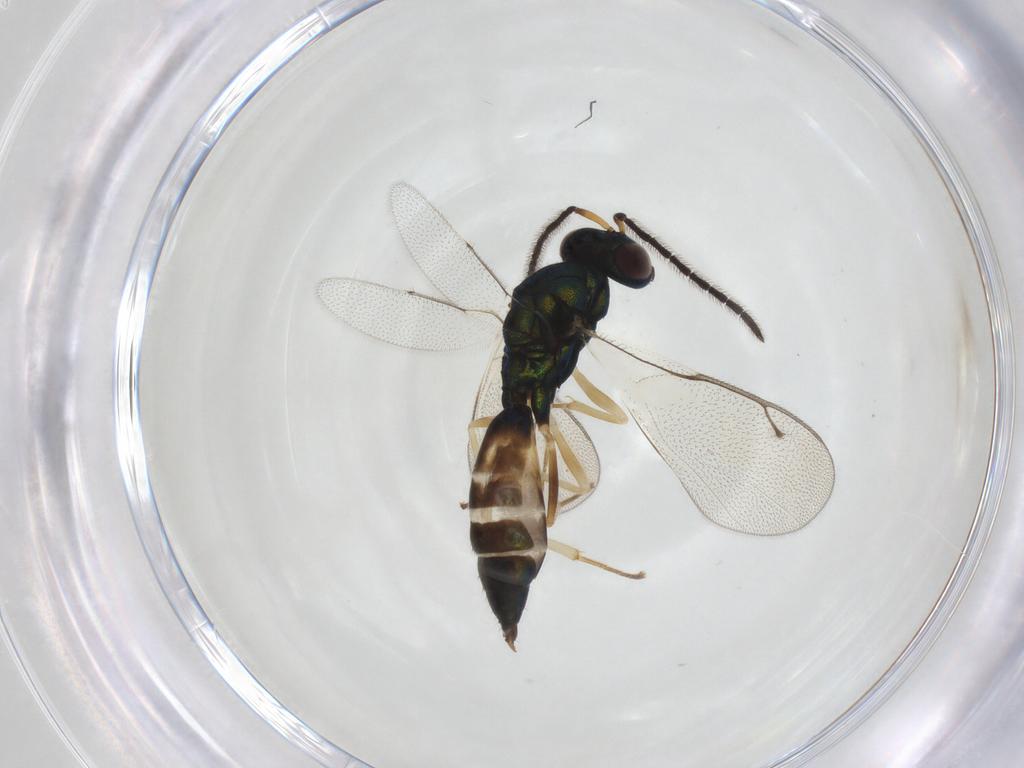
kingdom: Animalia
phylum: Arthropoda
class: Insecta
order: Hymenoptera
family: Pteromalidae
